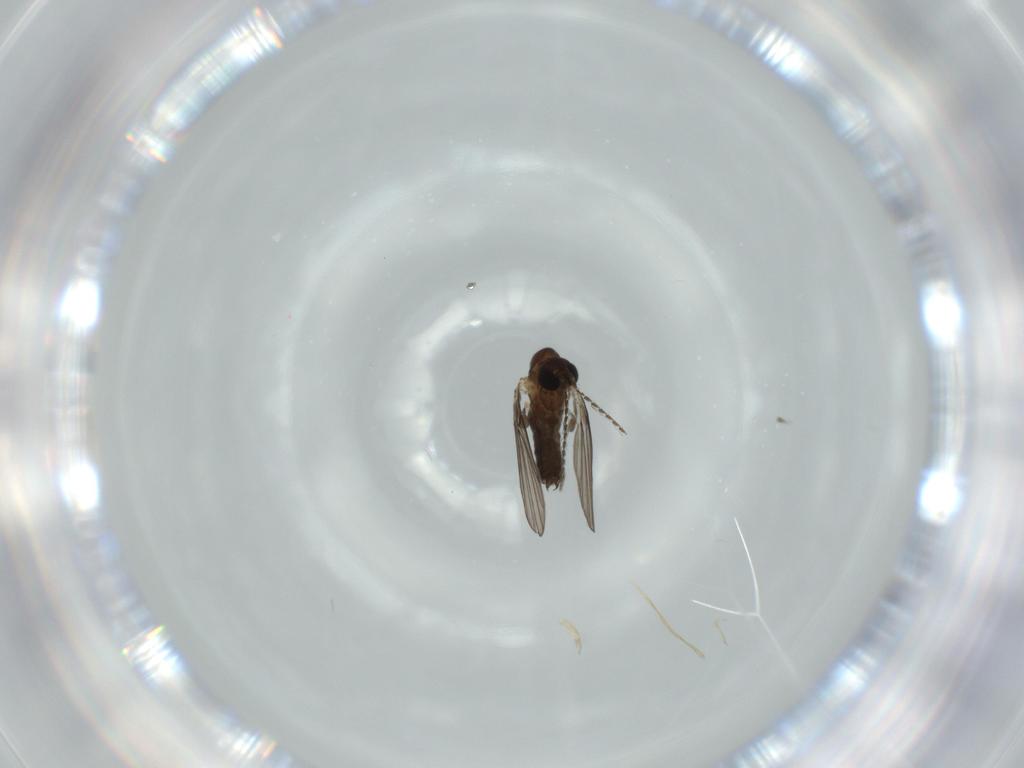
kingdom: Animalia
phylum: Arthropoda
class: Insecta
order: Diptera
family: Psychodidae
